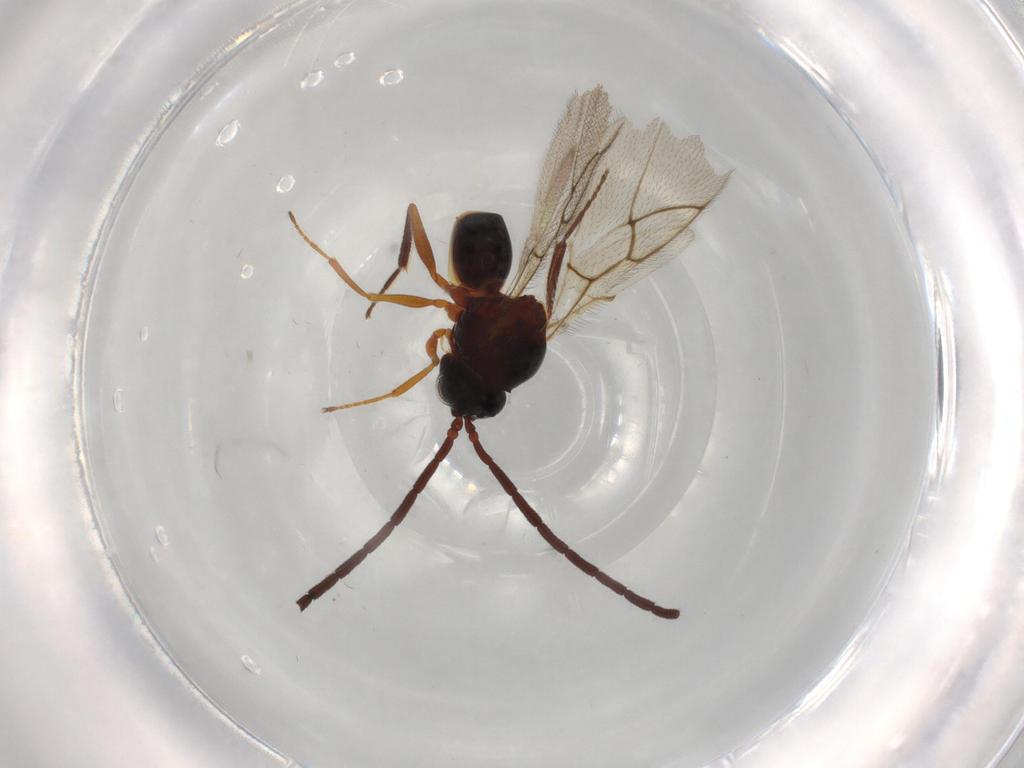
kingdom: Animalia
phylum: Arthropoda
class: Insecta
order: Hymenoptera
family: Figitidae
